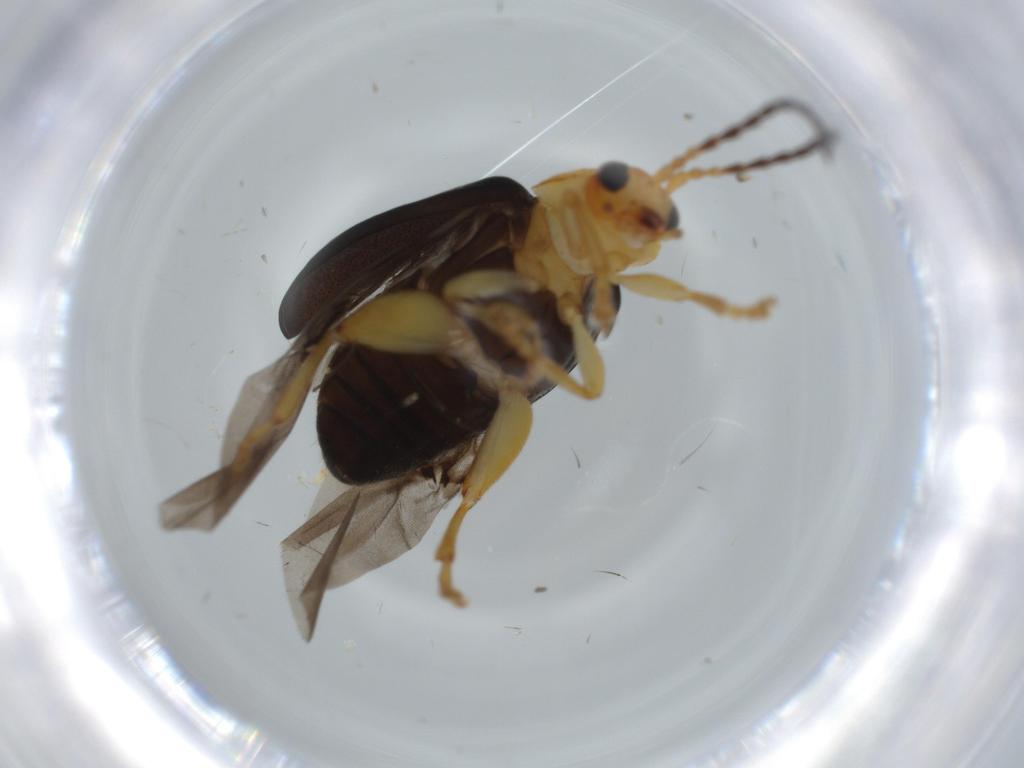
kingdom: Animalia
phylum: Arthropoda
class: Insecta
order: Coleoptera
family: Chrysomelidae
